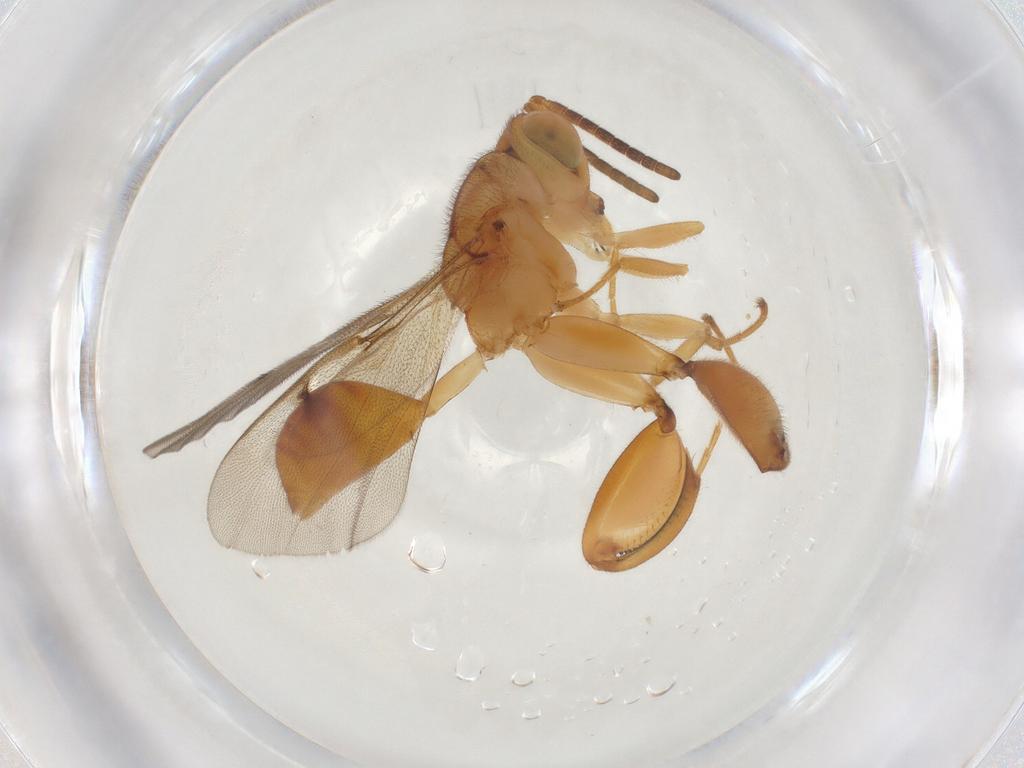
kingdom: Animalia
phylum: Arthropoda
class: Insecta
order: Hymenoptera
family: Chalcididae
